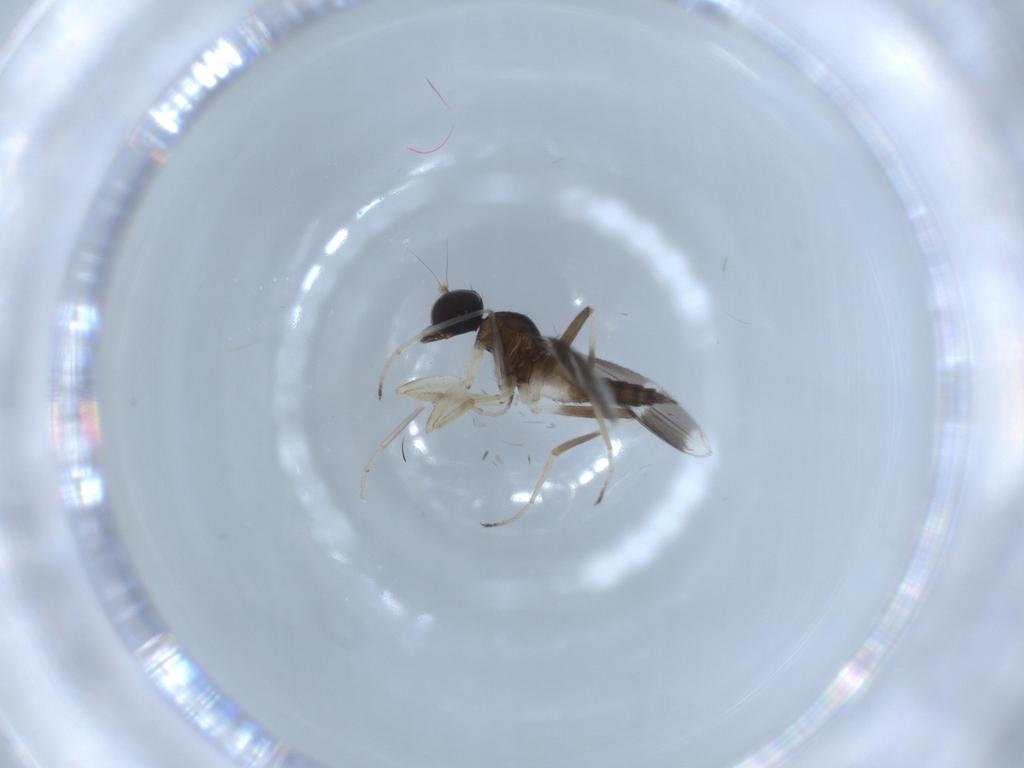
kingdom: Animalia
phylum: Arthropoda
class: Insecta
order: Diptera
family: Hybotidae
